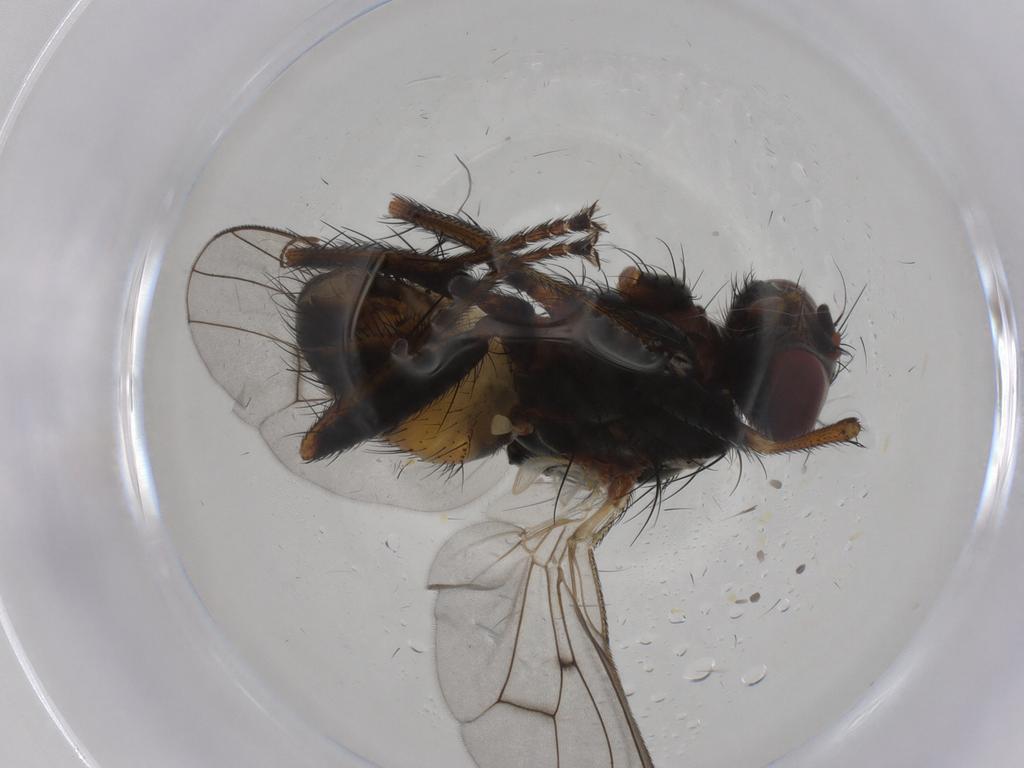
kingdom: Animalia
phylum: Arthropoda
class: Insecta
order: Diptera
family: Muscidae
